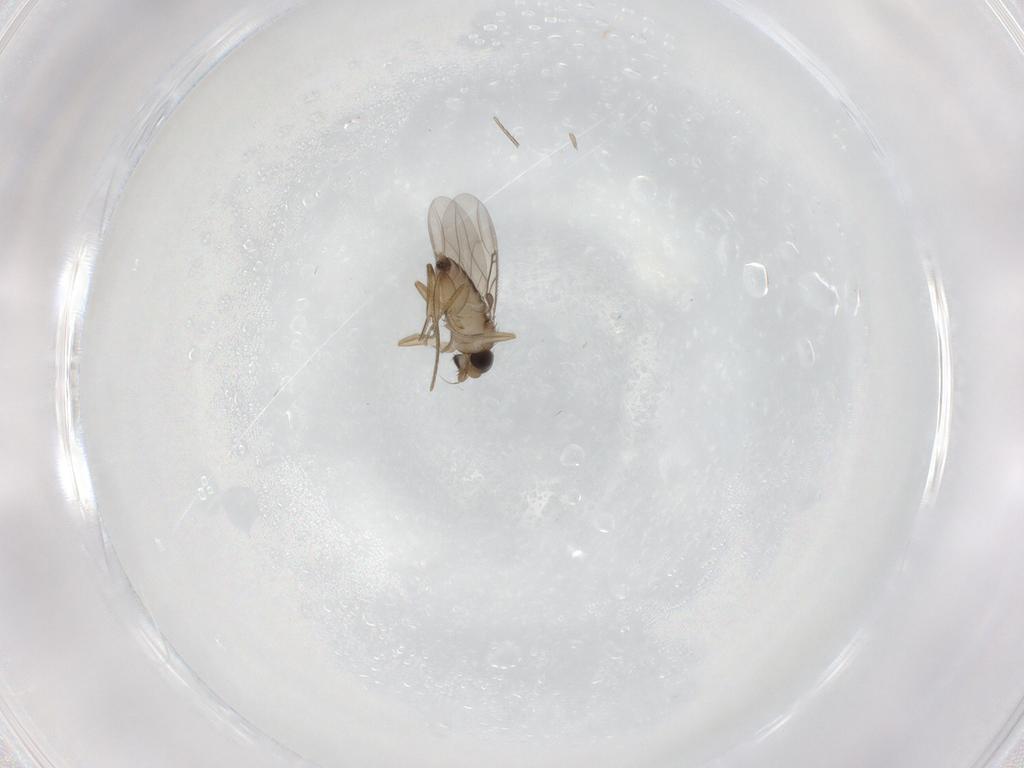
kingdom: Animalia
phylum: Arthropoda
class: Insecta
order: Diptera
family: Phoridae
